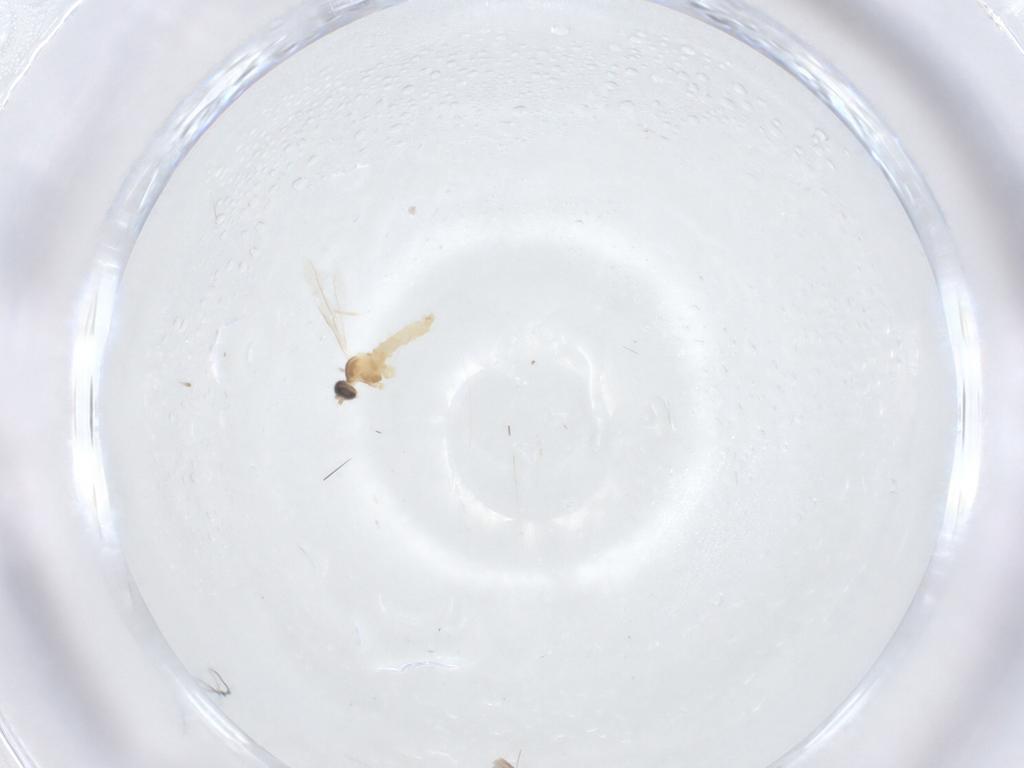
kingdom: Animalia
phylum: Arthropoda
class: Insecta
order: Diptera
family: Cecidomyiidae
